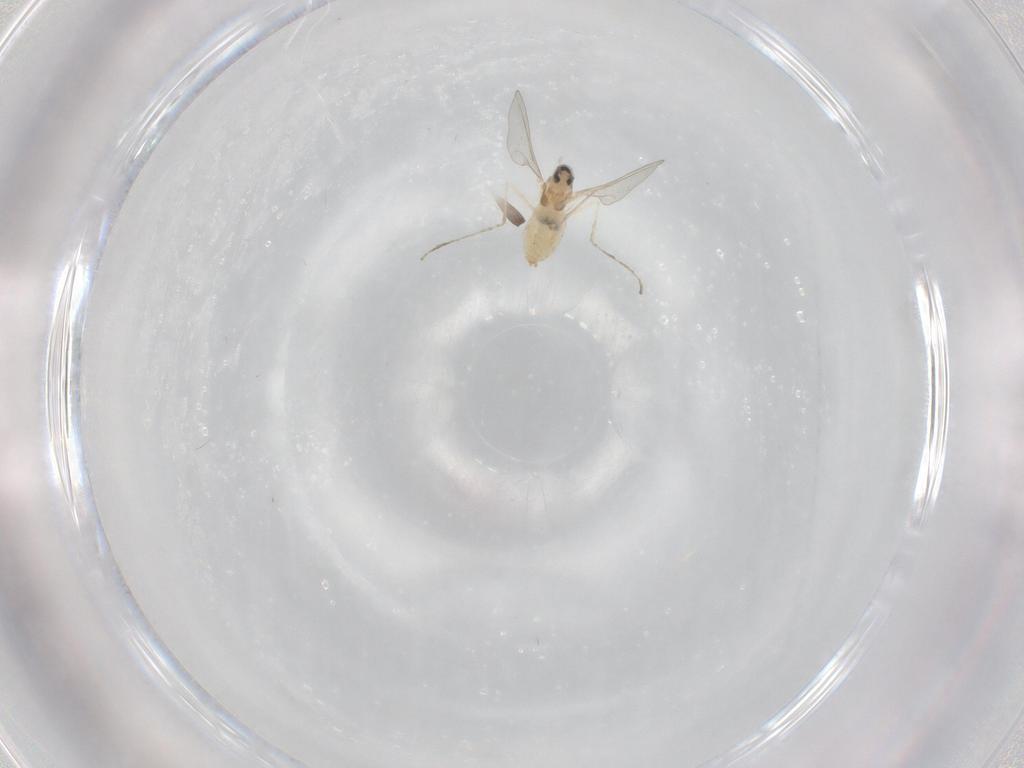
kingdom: Animalia
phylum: Arthropoda
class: Insecta
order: Diptera
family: Cecidomyiidae
